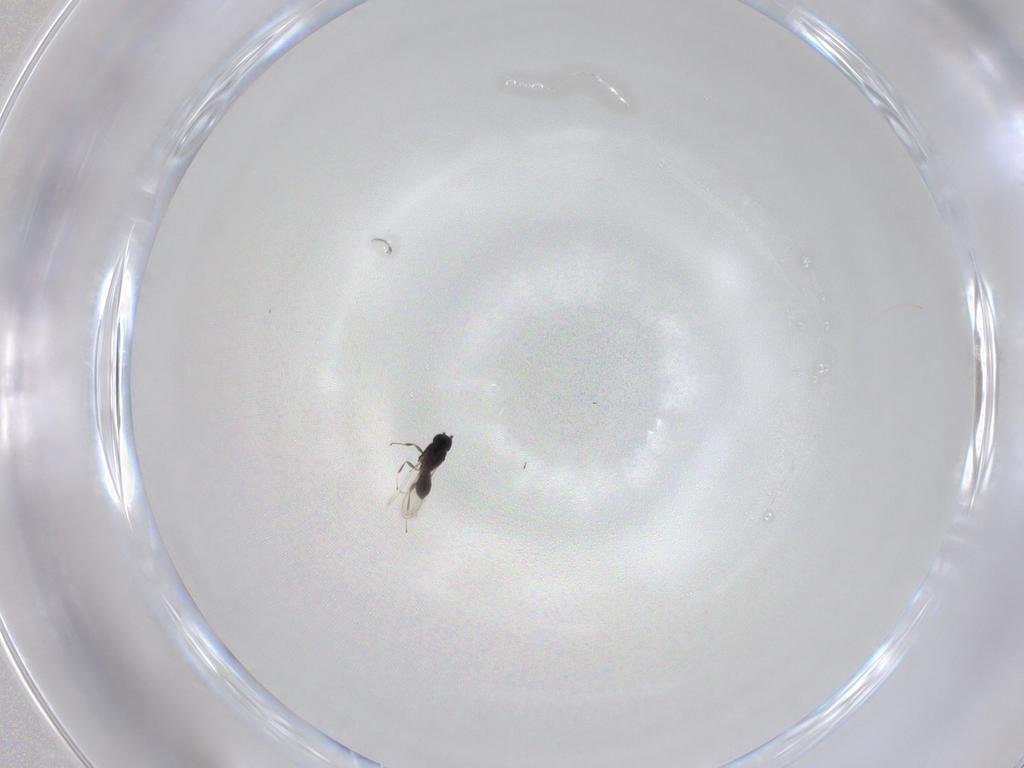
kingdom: Animalia
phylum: Arthropoda
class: Insecta
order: Hymenoptera
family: Scelionidae
